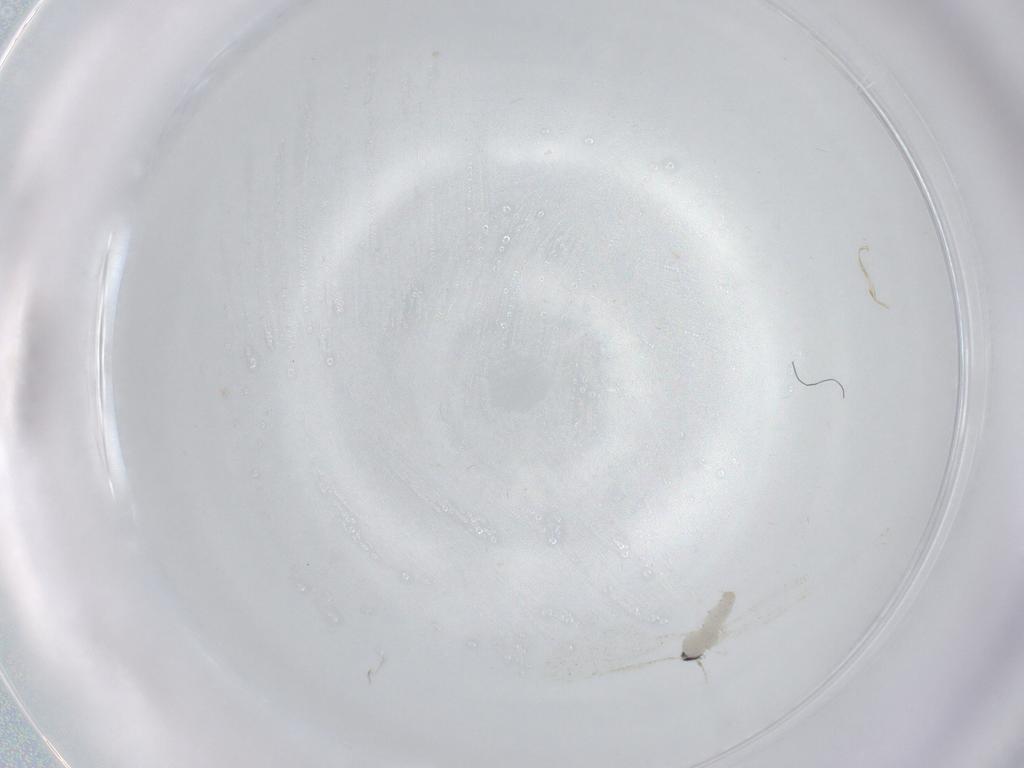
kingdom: Animalia
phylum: Arthropoda
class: Insecta
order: Diptera
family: Cecidomyiidae
